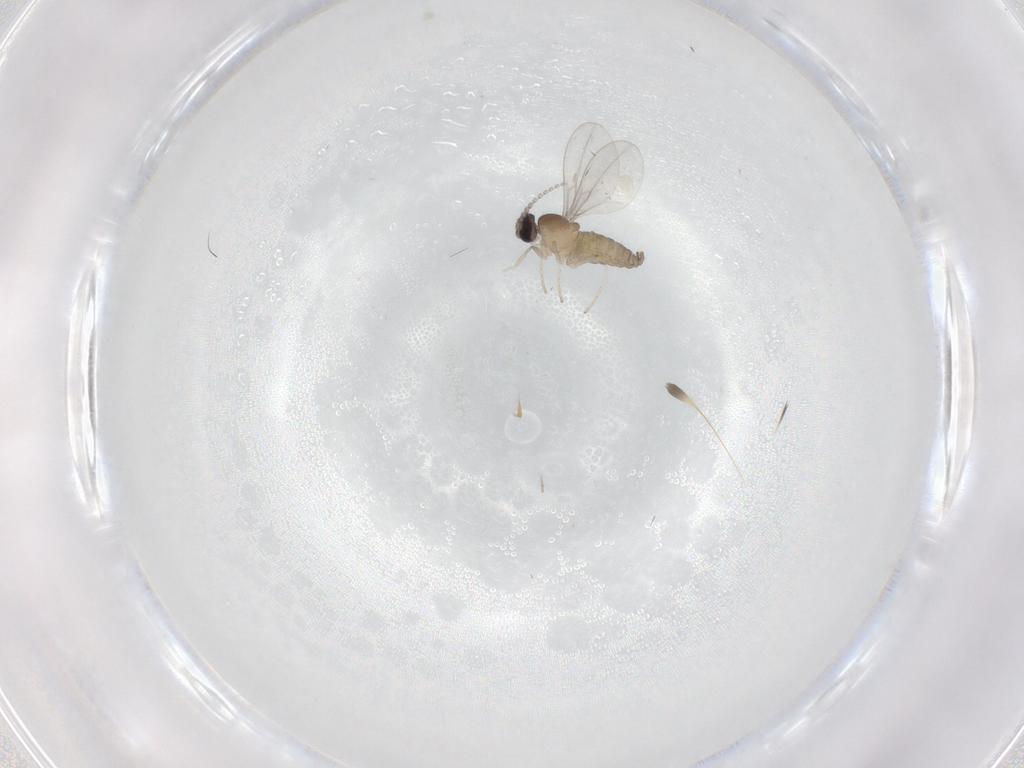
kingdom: Animalia
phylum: Arthropoda
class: Insecta
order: Diptera
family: Cecidomyiidae
